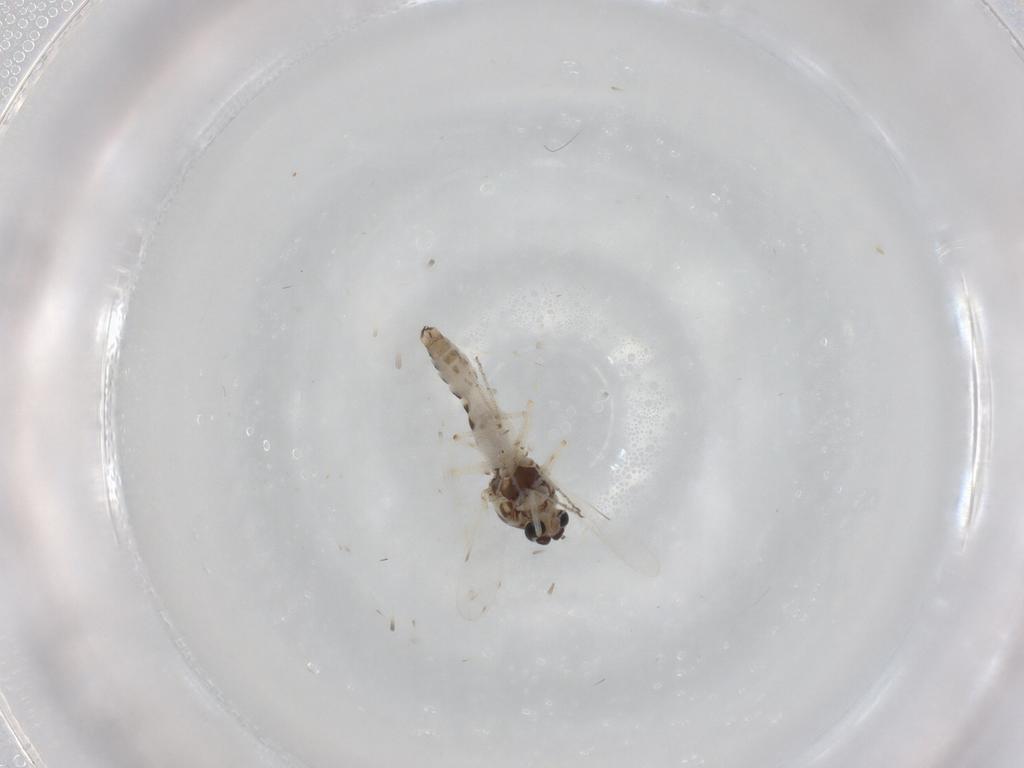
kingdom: Animalia
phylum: Arthropoda
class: Insecta
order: Diptera
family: Ceratopogonidae
